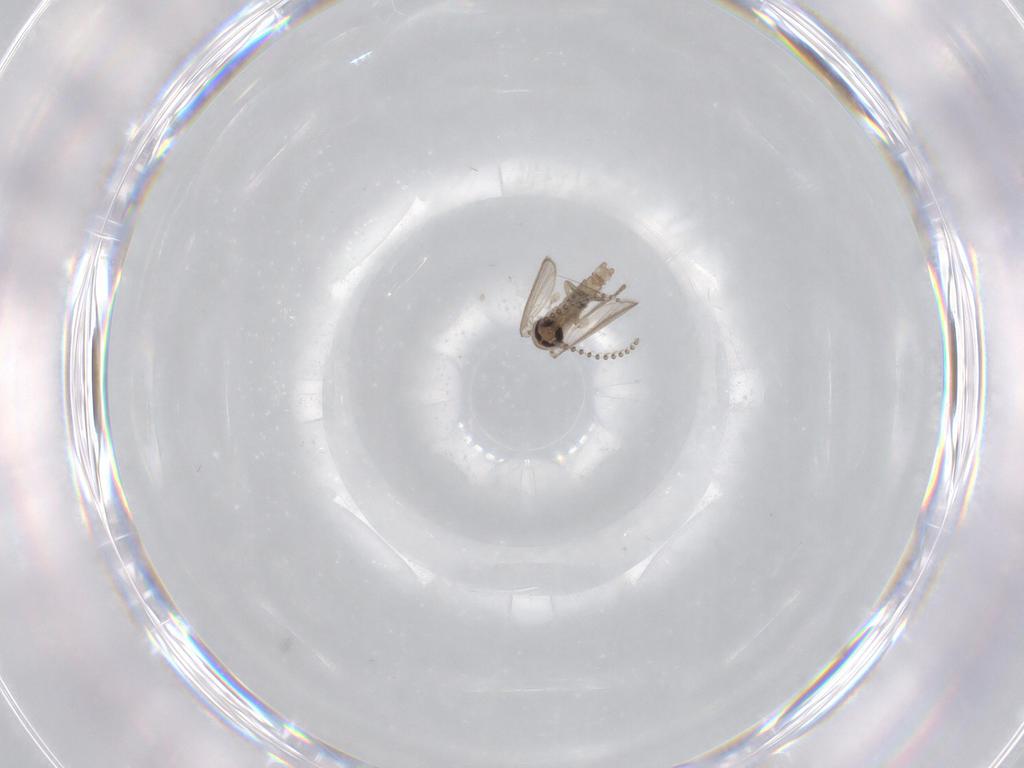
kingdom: Animalia
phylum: Arthropoda
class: Insecta
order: Diptera
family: Psychodidae
